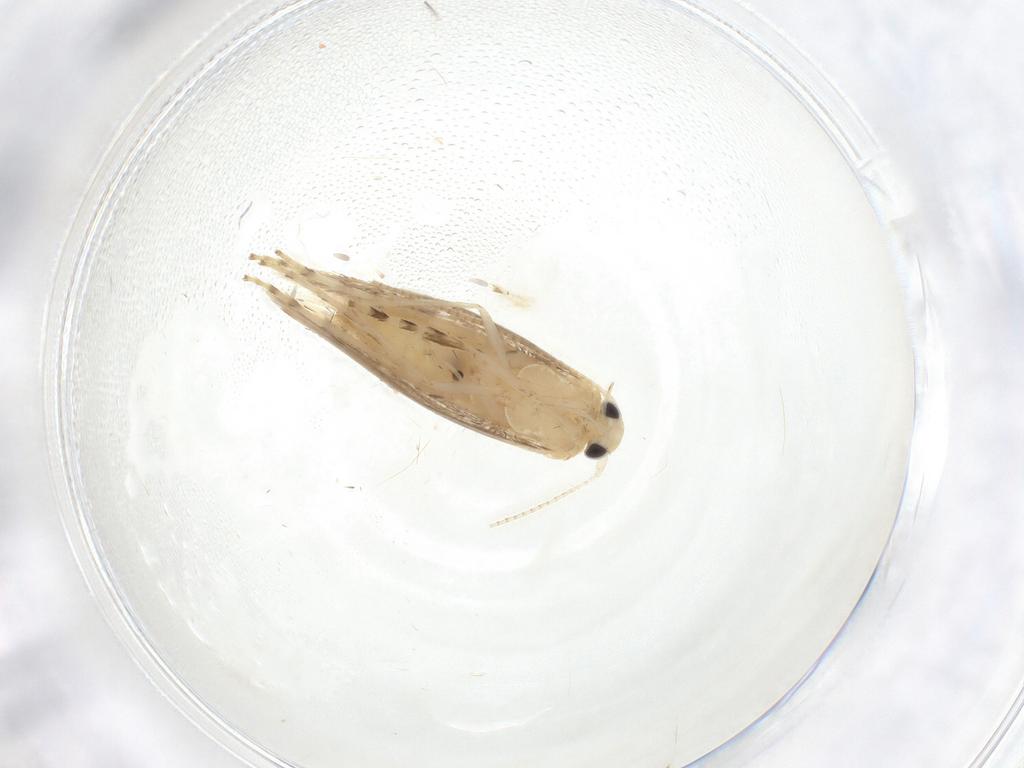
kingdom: Animalia
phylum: Arthropoda
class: Insecta
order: Lepidoptera
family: Gracillariidae
